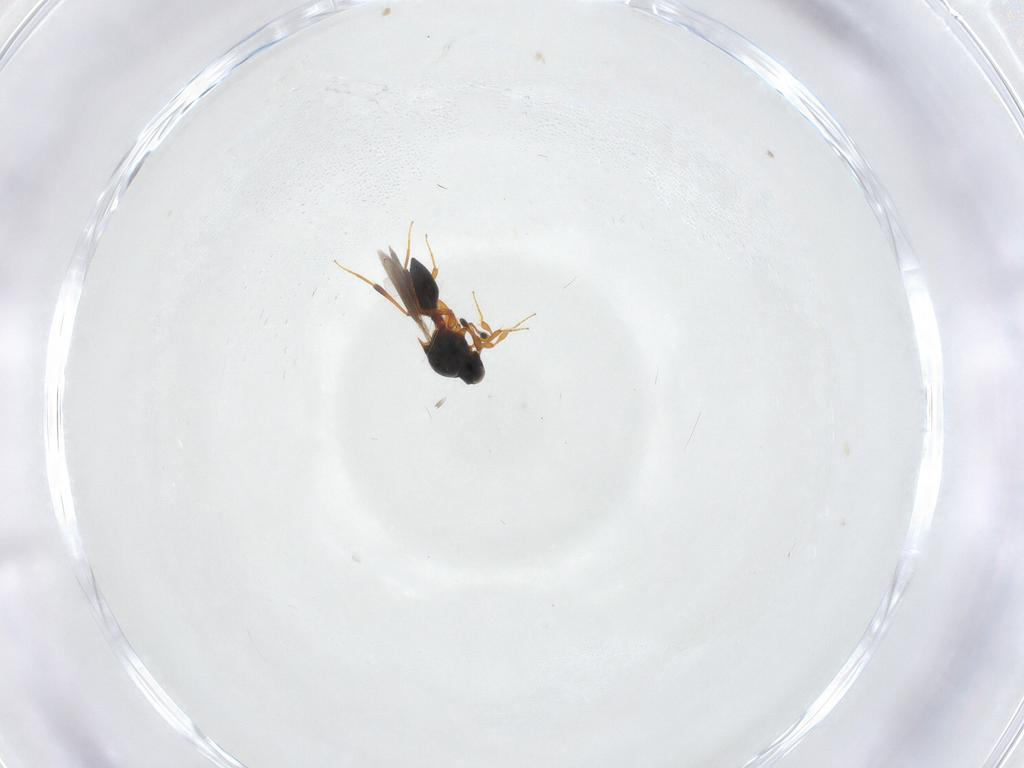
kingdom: Animalia
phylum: Arthropoda
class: Insecta
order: Hymenoptera
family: Platygastridae
